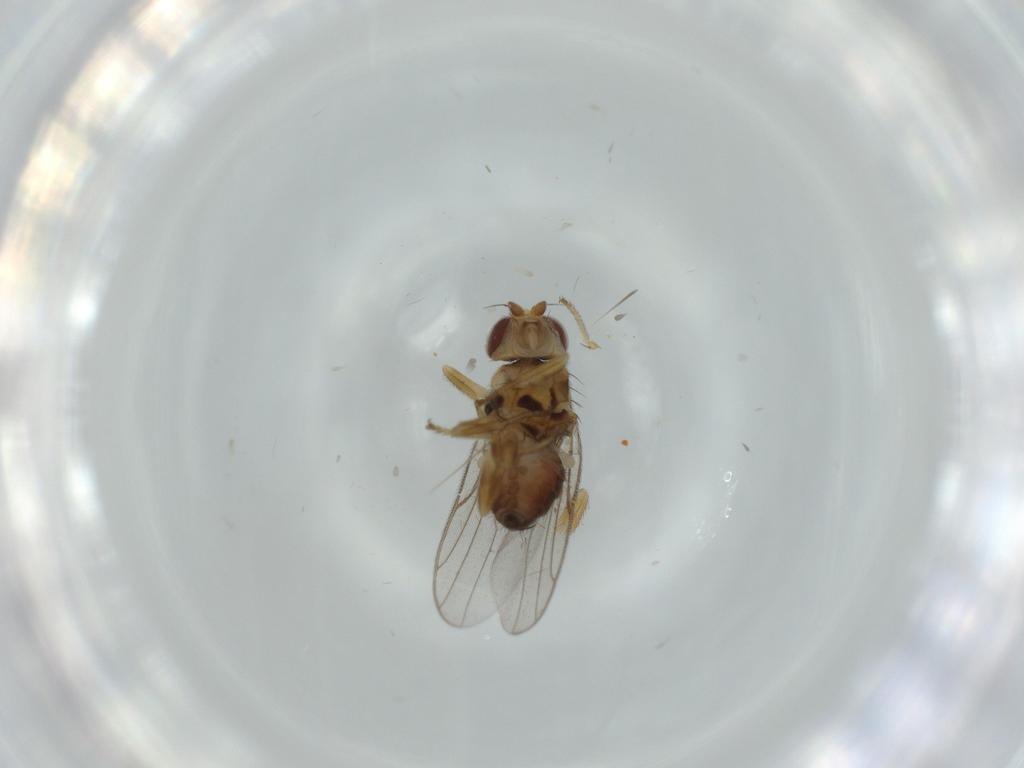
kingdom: Animalia
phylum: Arthropoda
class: Insecta
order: Diptera
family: Chloropidae
